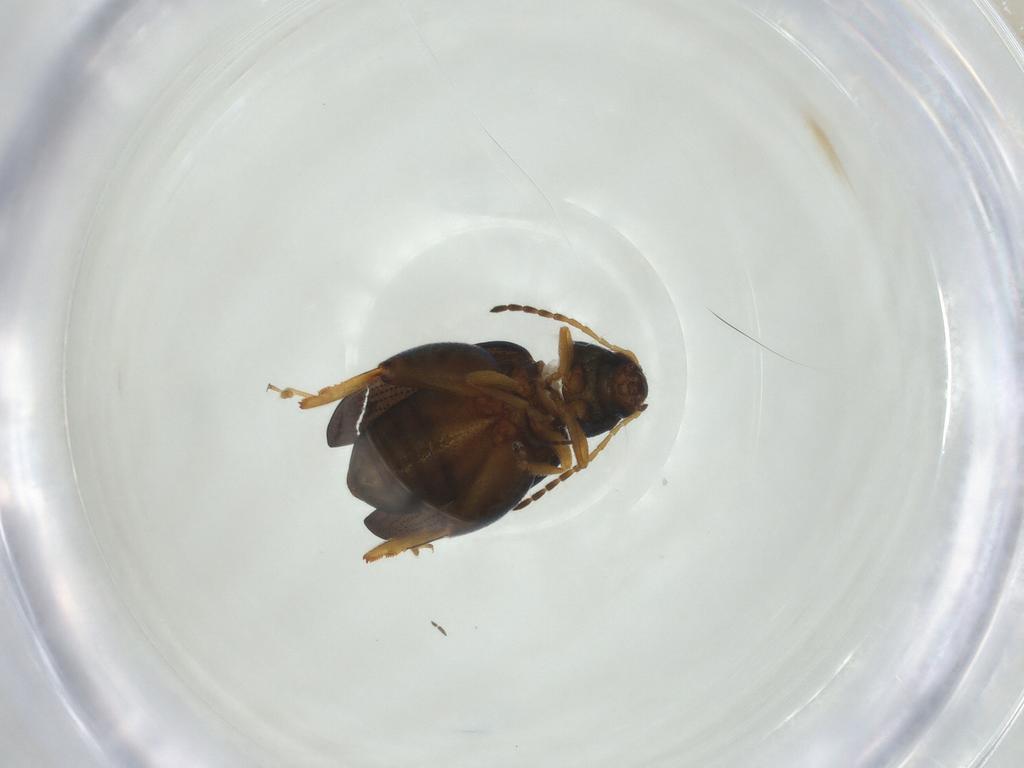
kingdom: Animalia
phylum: Arthropoda
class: Insecta
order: Coleoptera
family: Chrysomelidae
